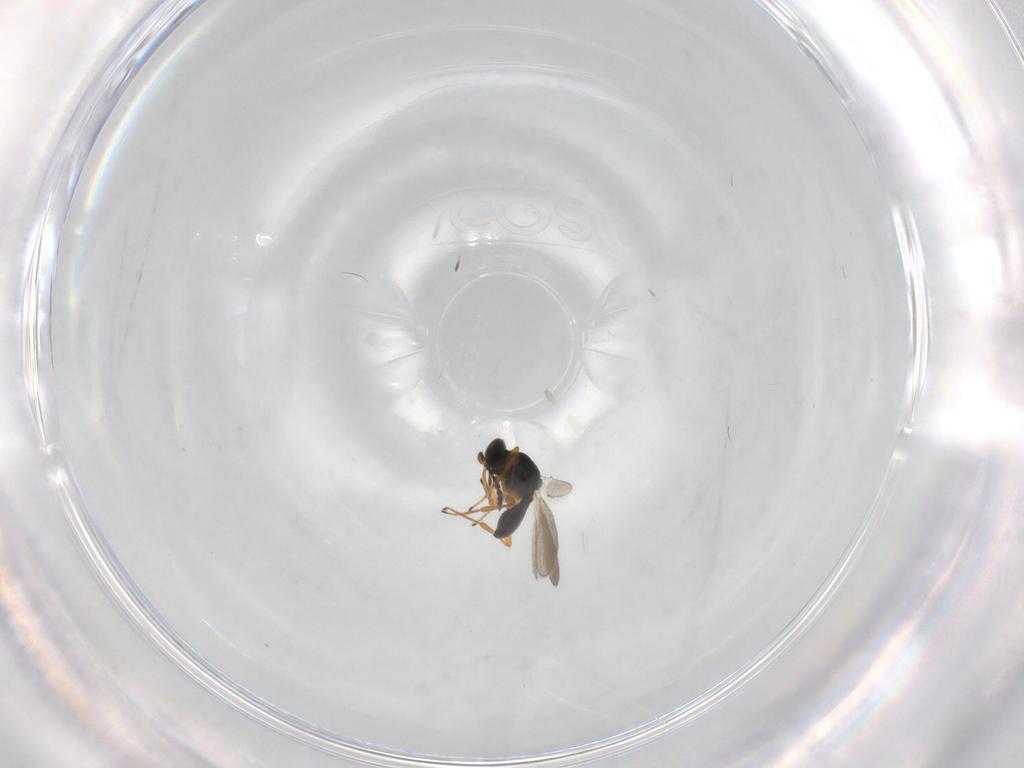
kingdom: Animalia
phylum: Arthropoda
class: Insecta
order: Hymenoptera
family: Platygastridae
